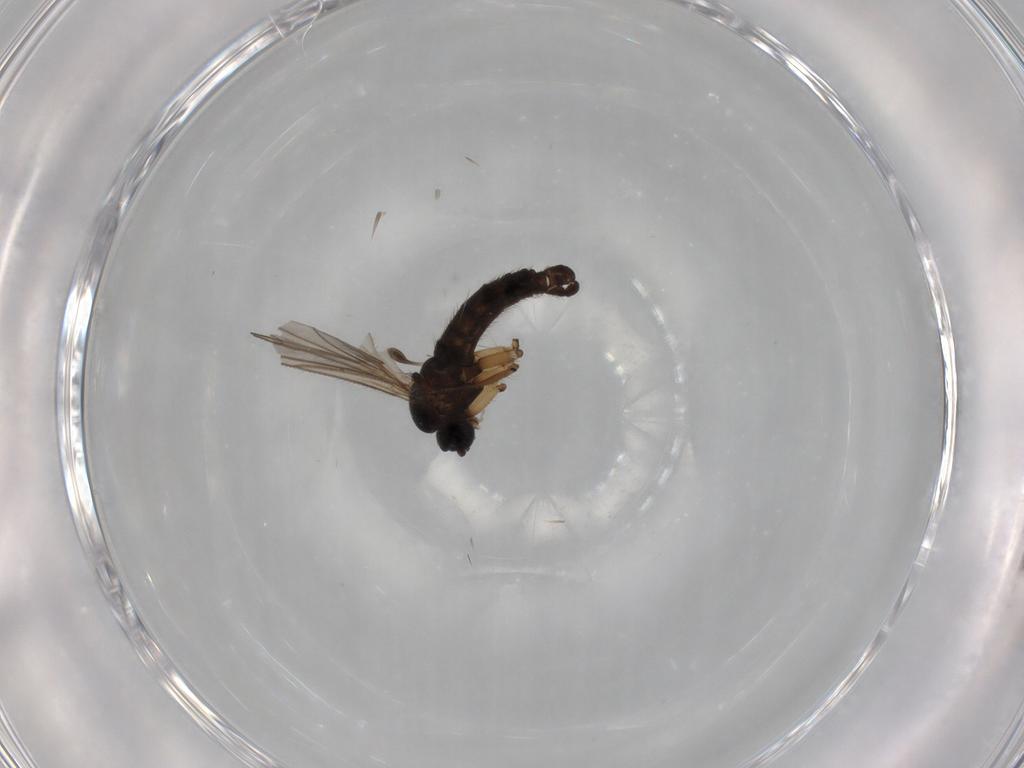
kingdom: Animalia
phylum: Arthropoda
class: Insecta
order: Diptera
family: Sciaridae
